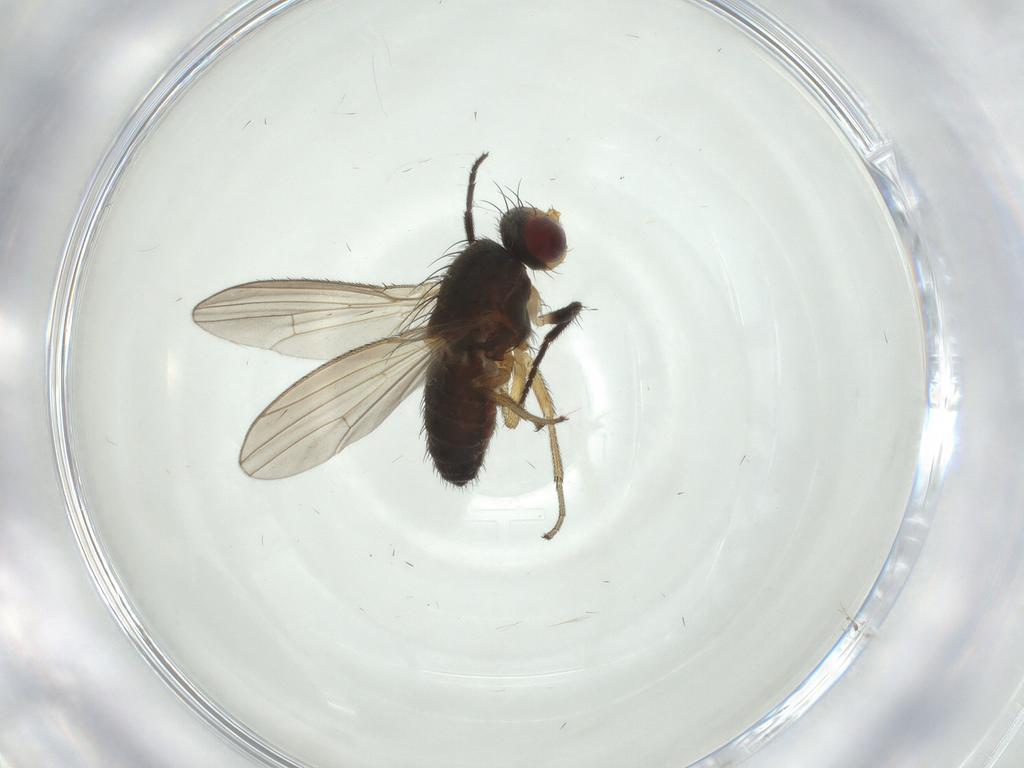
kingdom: Animalia
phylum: Arthropoda
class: Insecta
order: Diptera
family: Heleomyzidae
